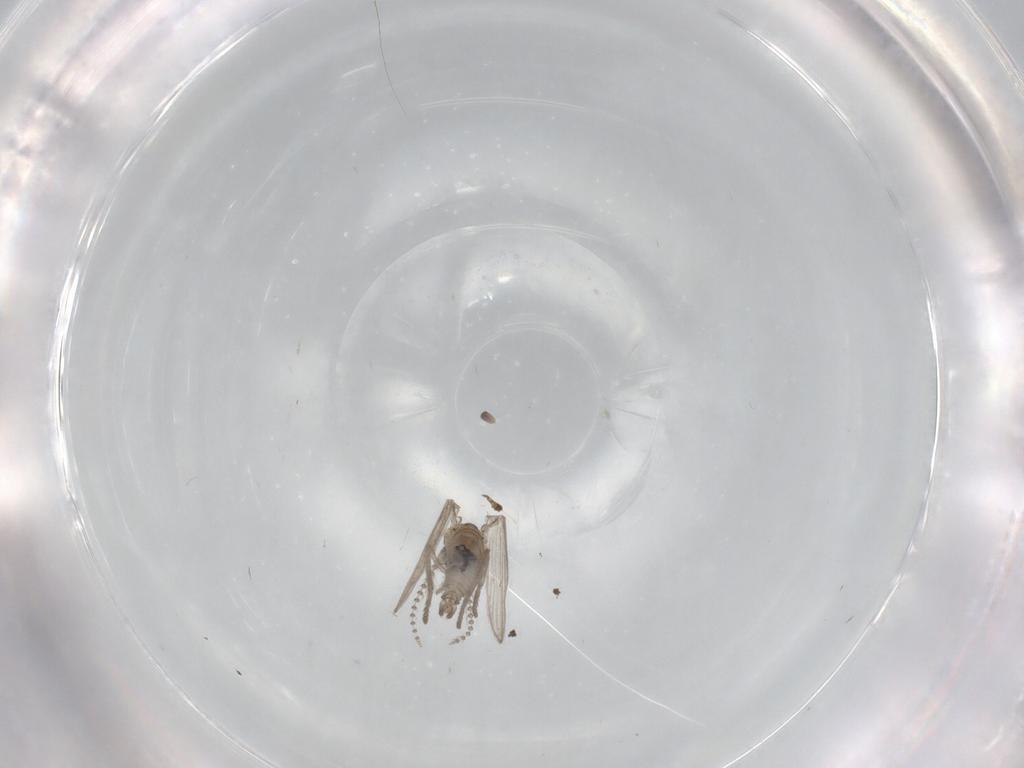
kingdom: Animalia
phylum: Arthropoda
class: Insecta
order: Diptera
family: Psychodidae
